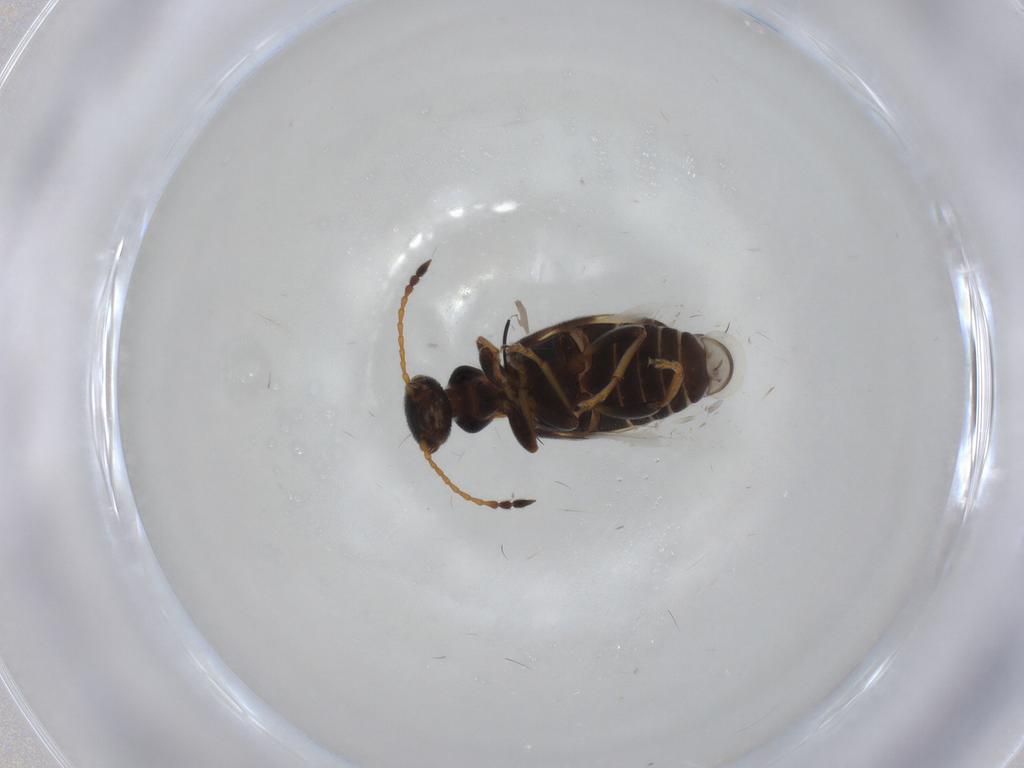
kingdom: Animalia
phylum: Arthropoda
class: Insecta
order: Coleoptera
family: Anthicidae
